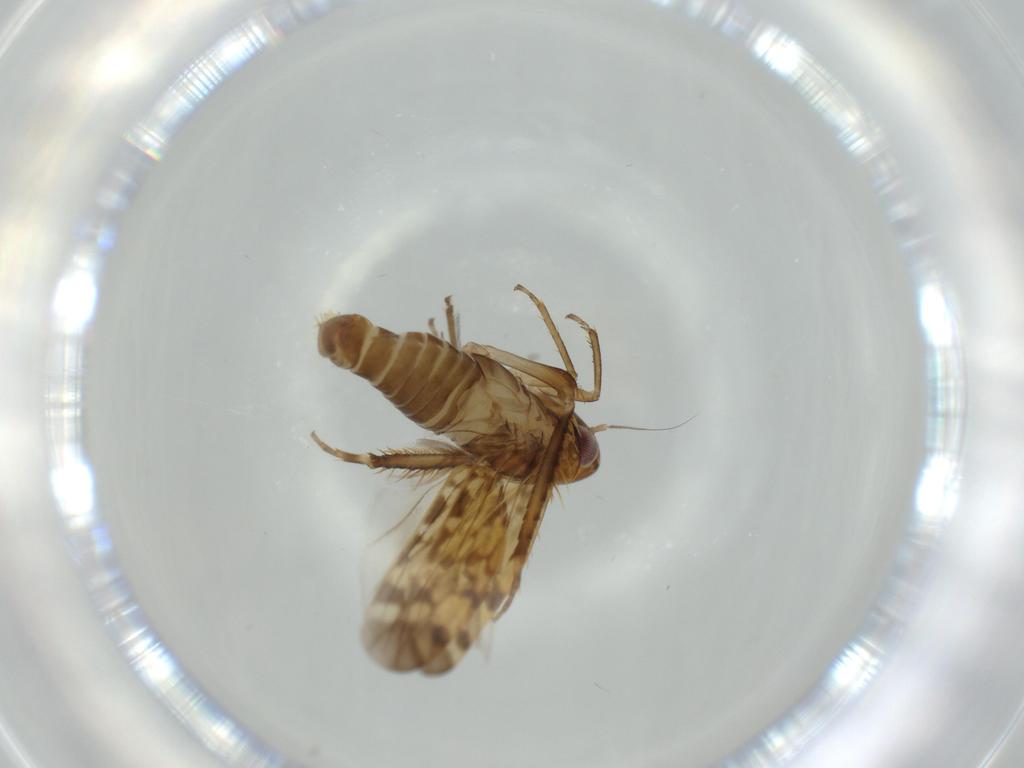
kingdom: Animalia
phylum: Arthropoda
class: Insecta
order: Hemiptera
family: Cicadellidae
